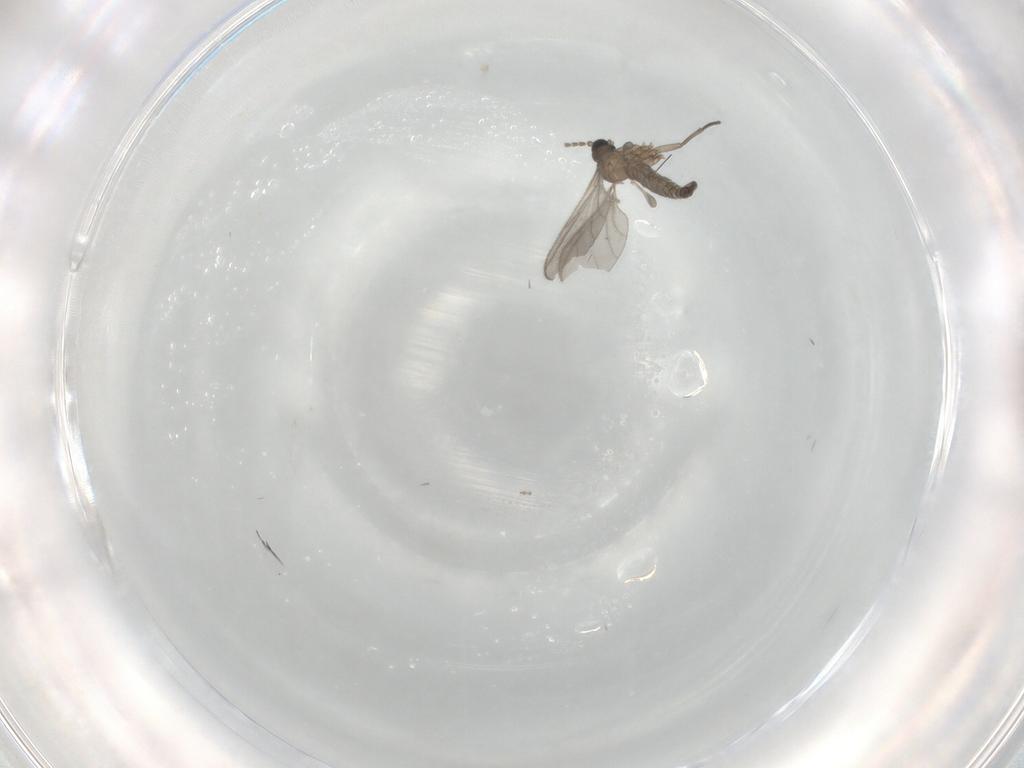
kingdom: Animalia
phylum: Arthropoda
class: Insecta
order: Diptera
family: Sciaridae
